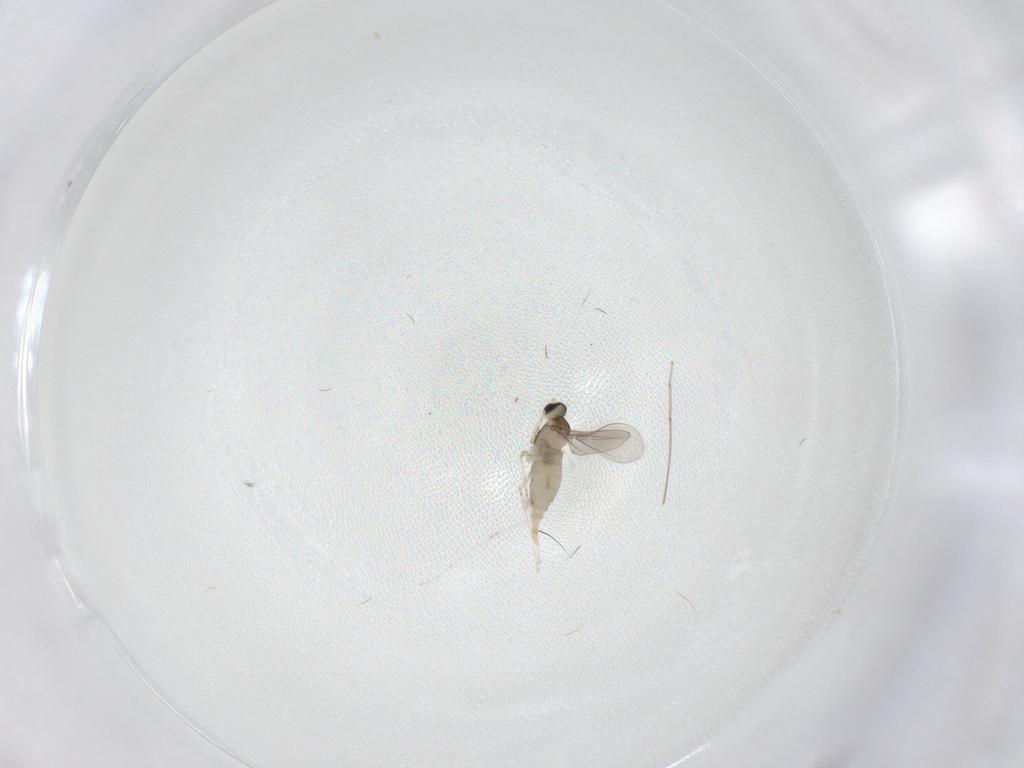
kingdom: Animalia
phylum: Arthropoda
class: Insecta
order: Diptera
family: Cecidomyiidae
